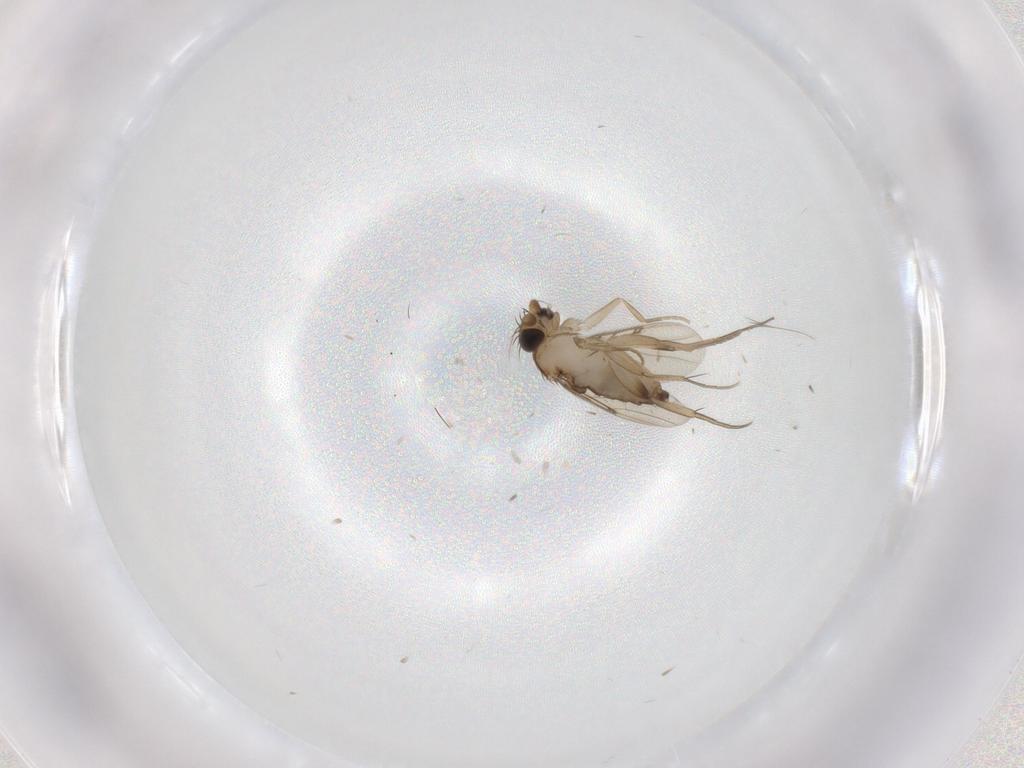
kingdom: Animalia
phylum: Arthropoda
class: Insecta
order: Diptera
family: Phoridae
